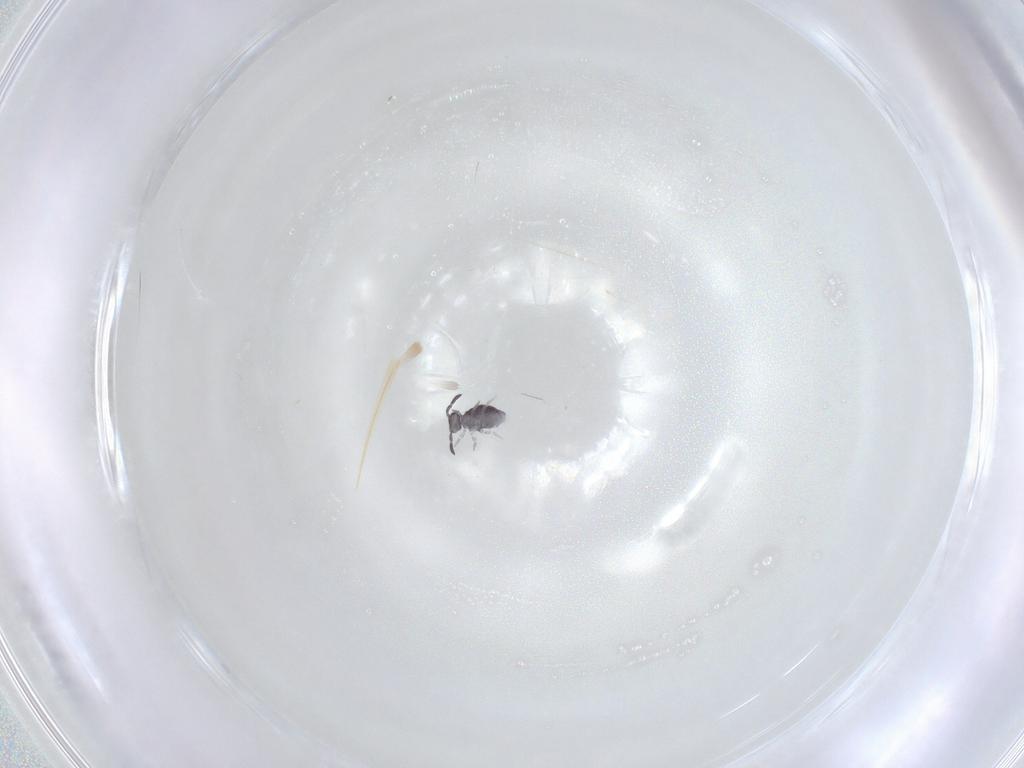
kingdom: Animalia
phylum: Arthropoda
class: Collembola
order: Symphypleona
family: Katiannidae
